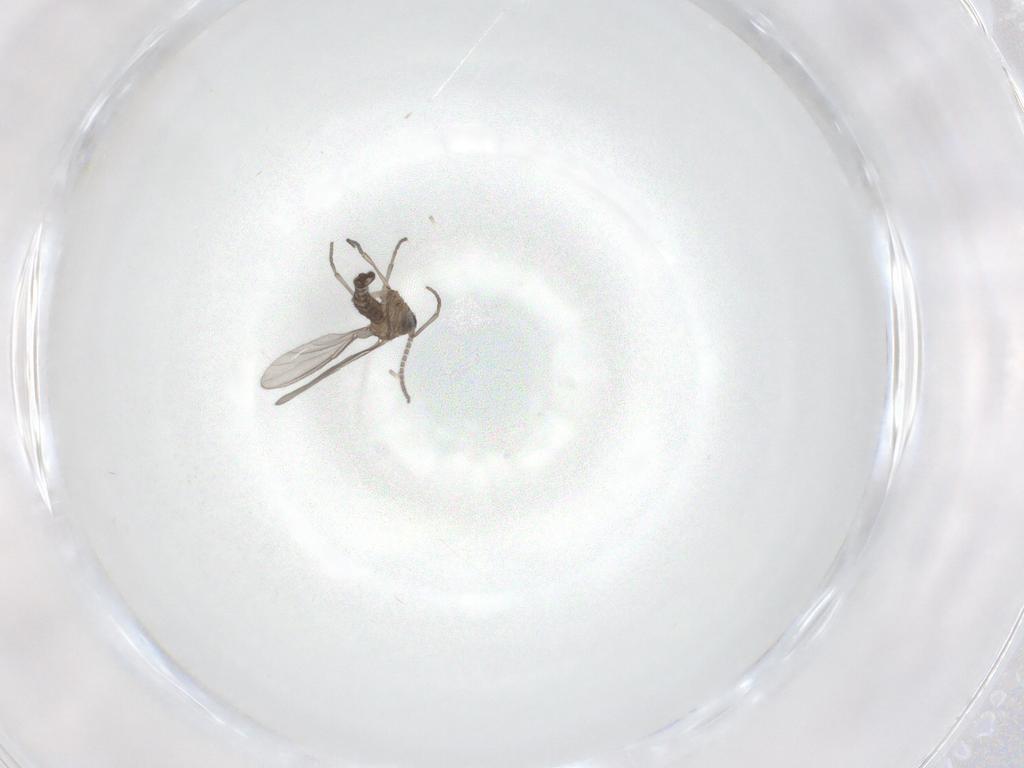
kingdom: Animalia
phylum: Arthropoda
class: Insecta
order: Diptera
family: Sciaridae
